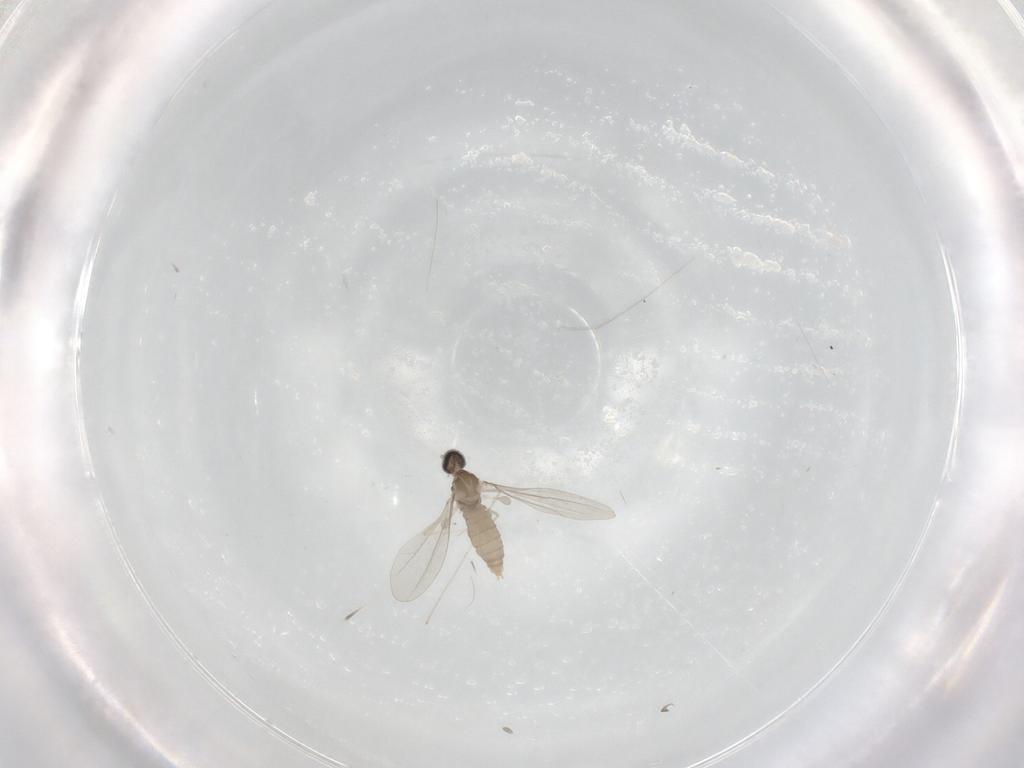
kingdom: Animalia
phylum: Arthropoda
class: Insecta
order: Diptera
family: Cecidomyiidae
